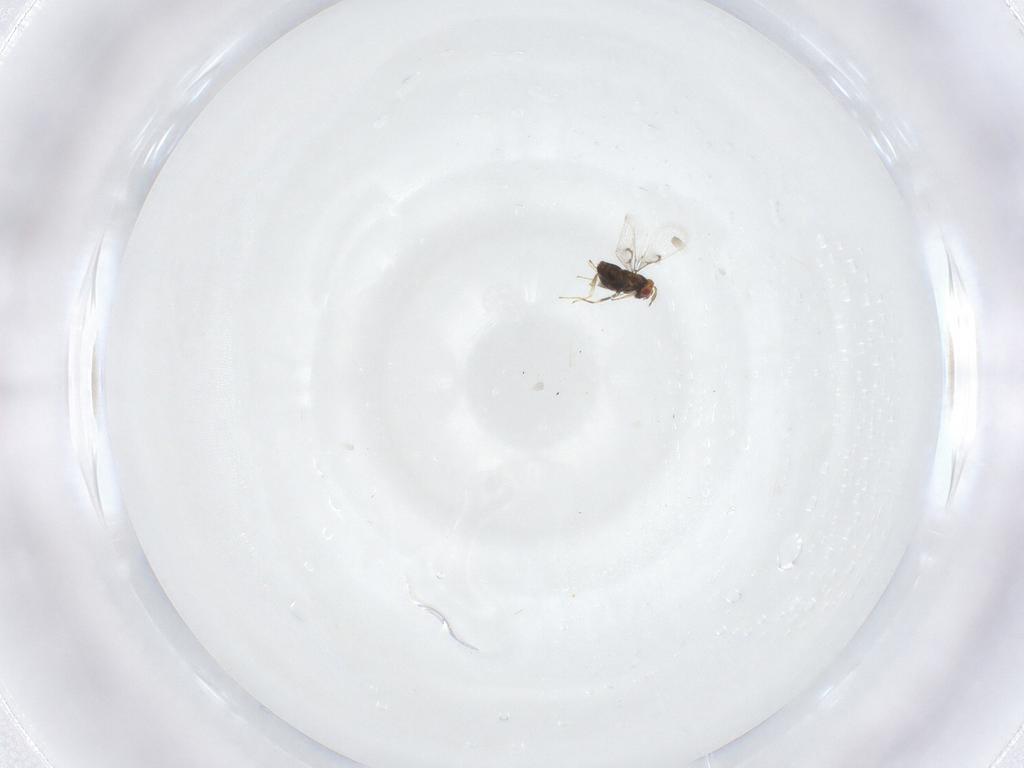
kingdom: Animalia
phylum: Arthropoda
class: Insecta
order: Hymenoptera
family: Trichogrammatidae
